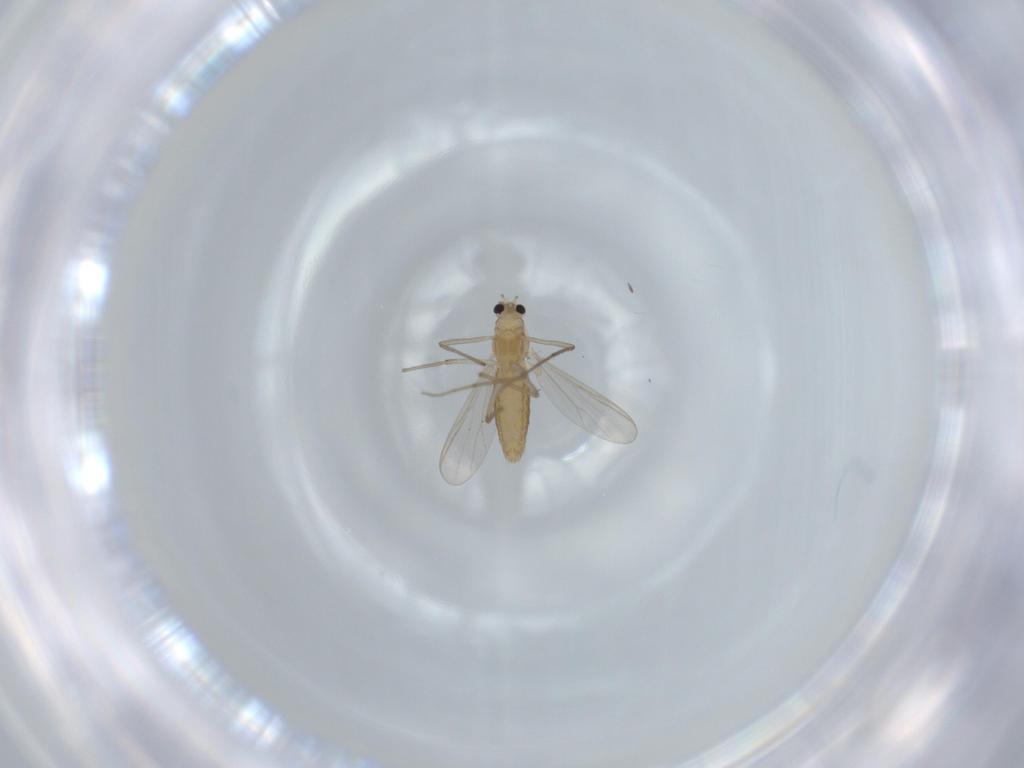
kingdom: Animalia
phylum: Arthropoda
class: Insecta
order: Diptera
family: Chironomidae
